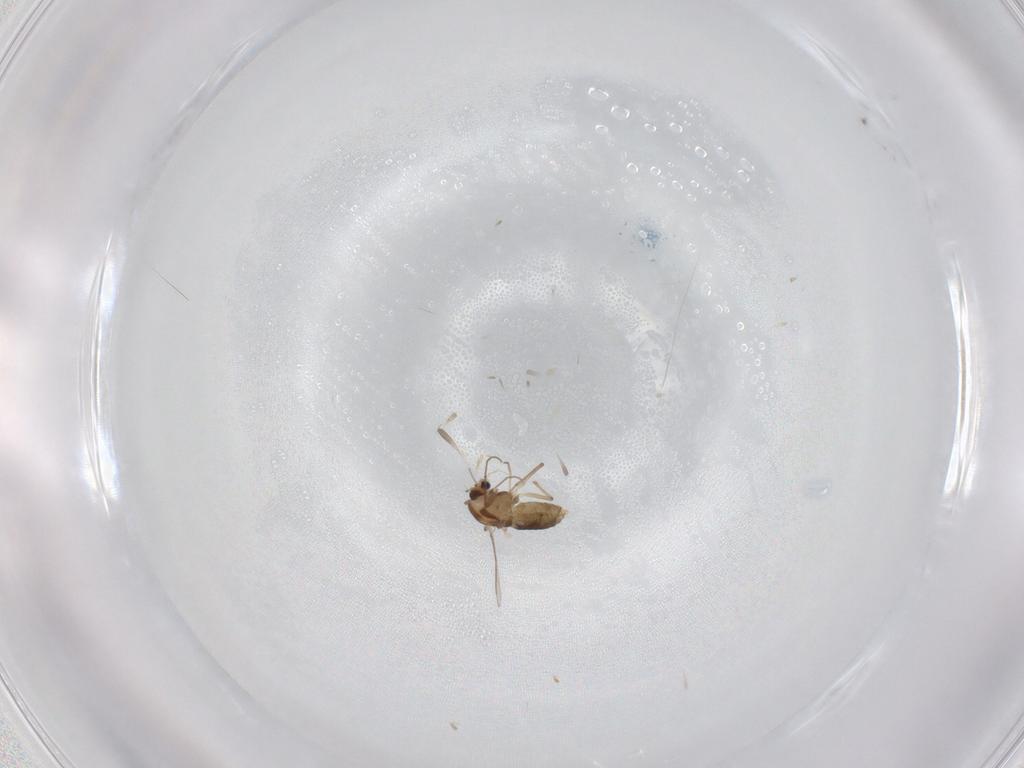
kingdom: Animalia
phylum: Arthropoda
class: Insecta
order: Diptera
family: Chironomidae
